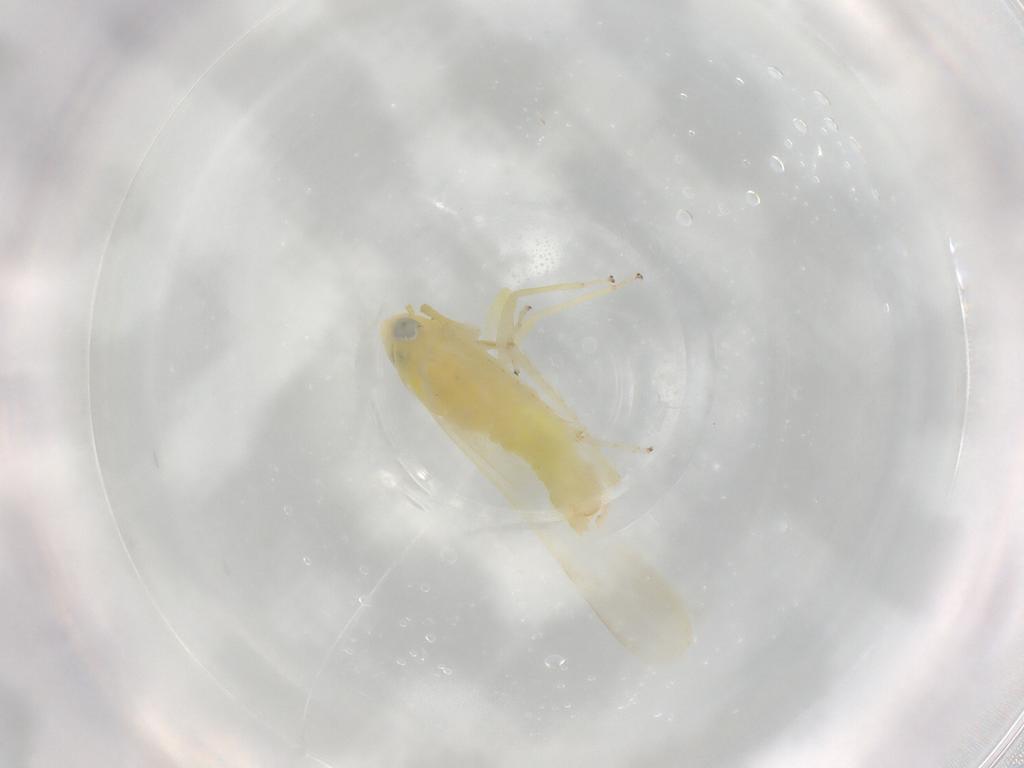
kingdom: Animalia
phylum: Arthropoda
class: Insecta
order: Hemiptera
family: Cicadellidae
